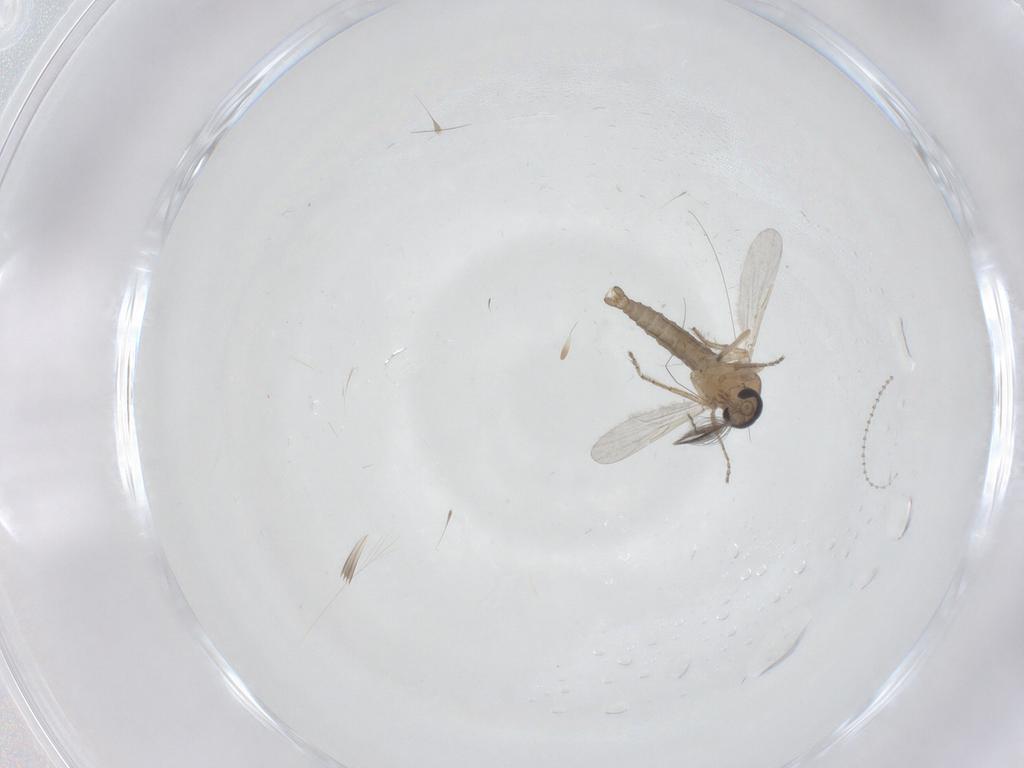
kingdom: Animalia
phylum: Arthropoda
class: Insecta
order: Diptera
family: Ceratopogonidae
